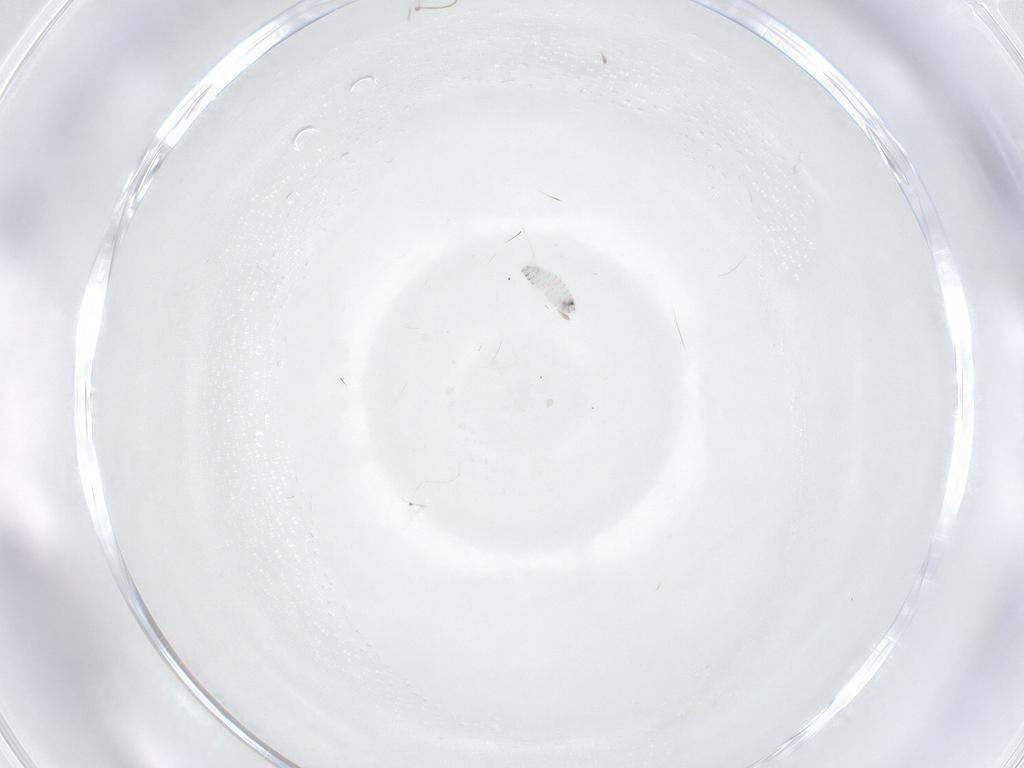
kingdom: Animalia
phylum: Arthropoda
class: Insecta
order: Diptera
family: Tachinidae
